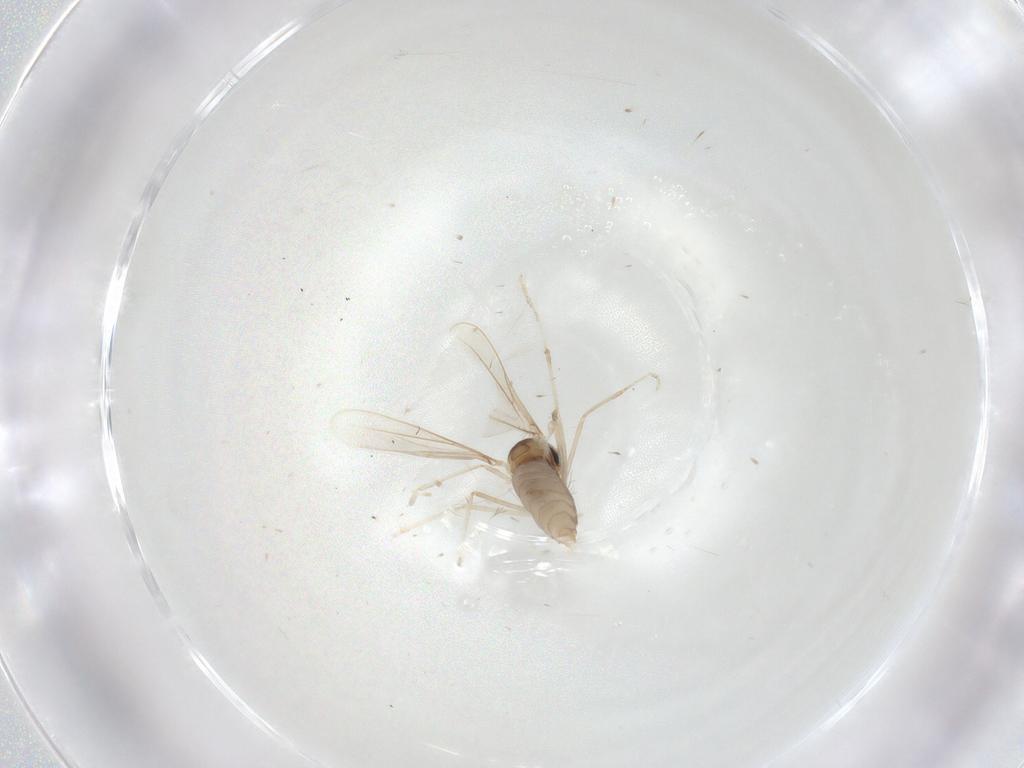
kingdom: Animalia
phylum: Arthropoda
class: Insecta
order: Diptera
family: Cecidomyiidae
